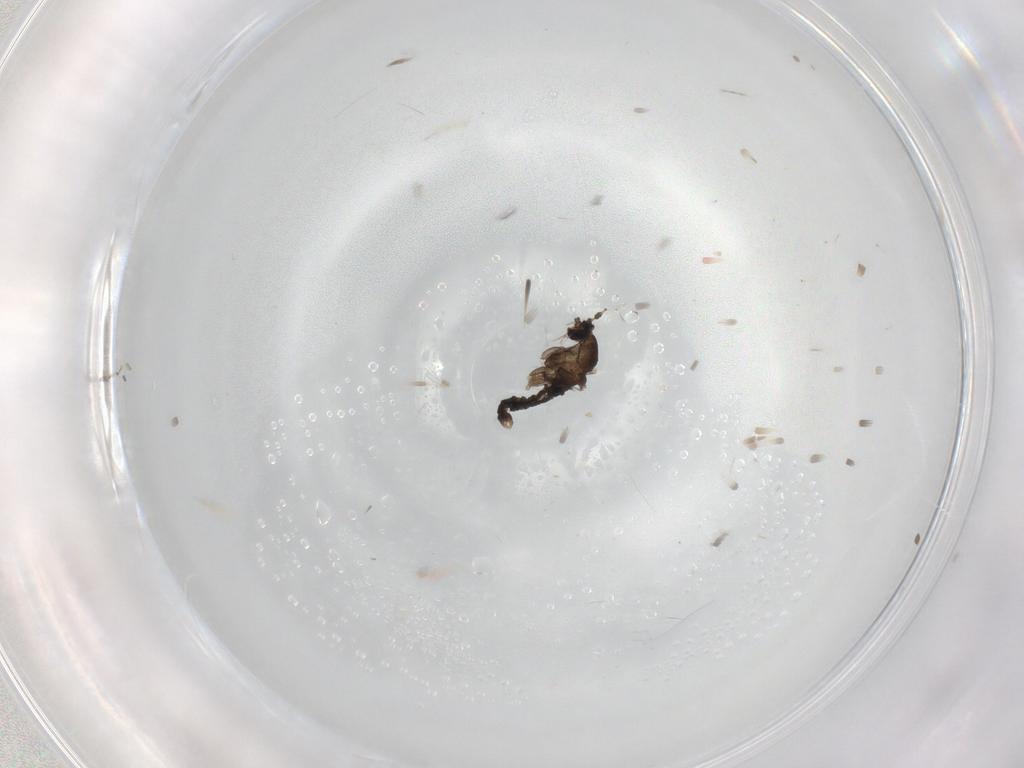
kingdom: Animalia
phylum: Arthropoda
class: Insecta
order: Diptera
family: Cecidomyiidae
